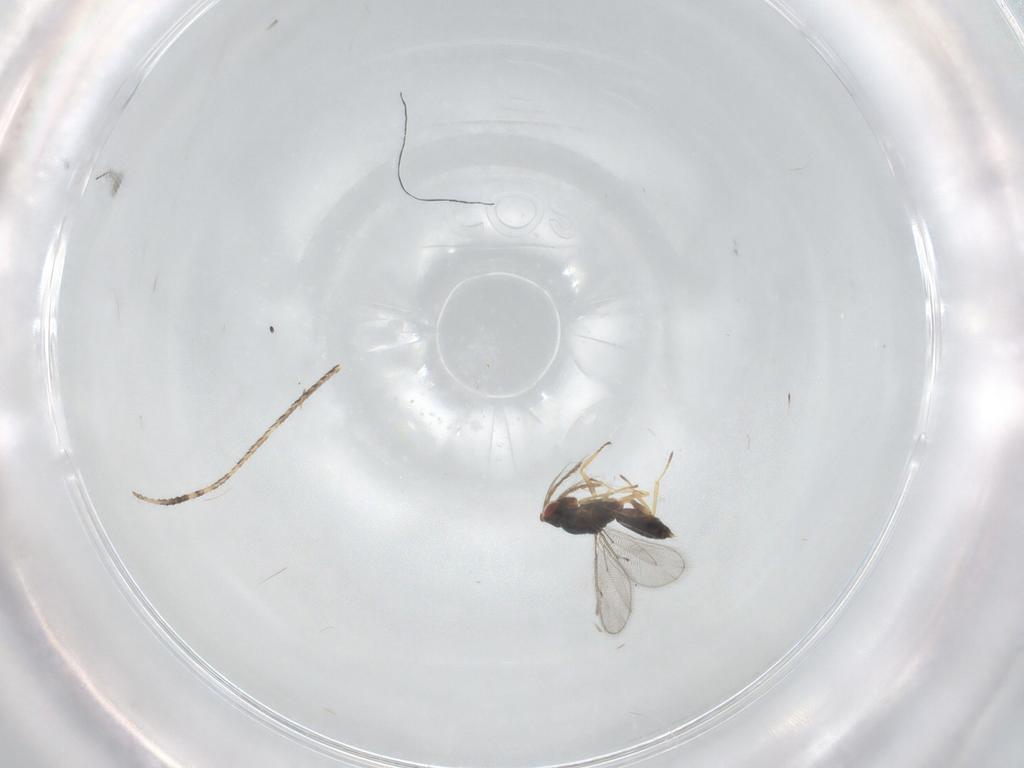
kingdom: Animalia
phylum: Arthropoda
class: Insecta
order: Hymenoptera
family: Eulophidae
